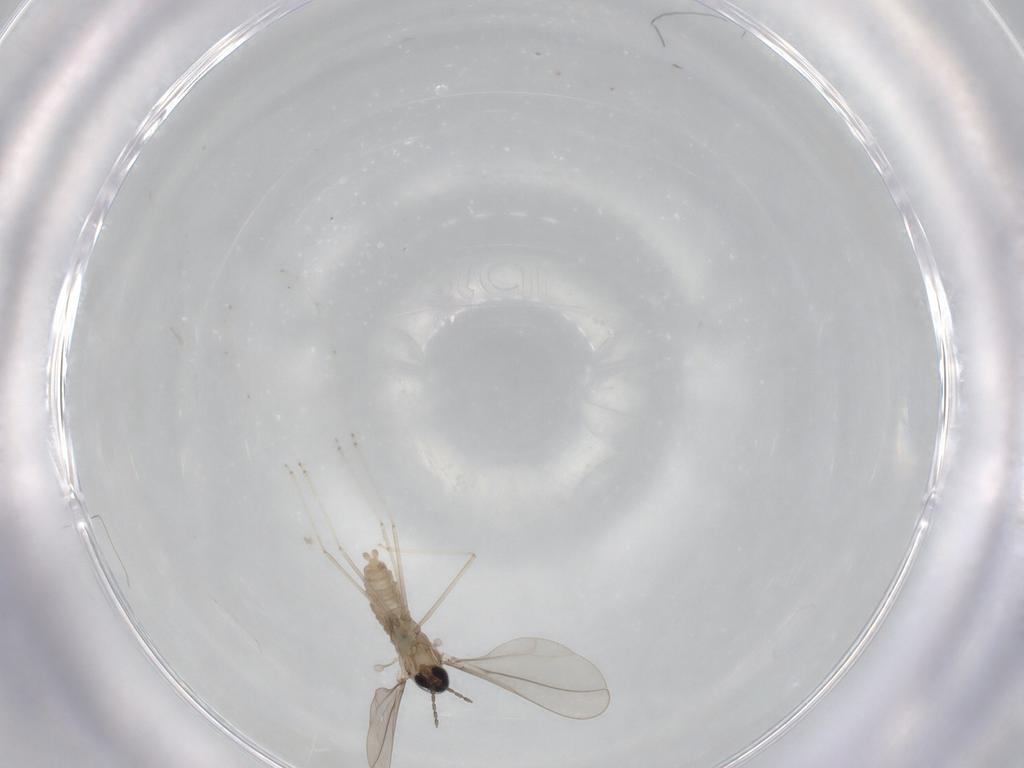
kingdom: Animalia
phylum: Arthropoda
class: Insecta
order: Diptera
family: Cecidomyiidae
